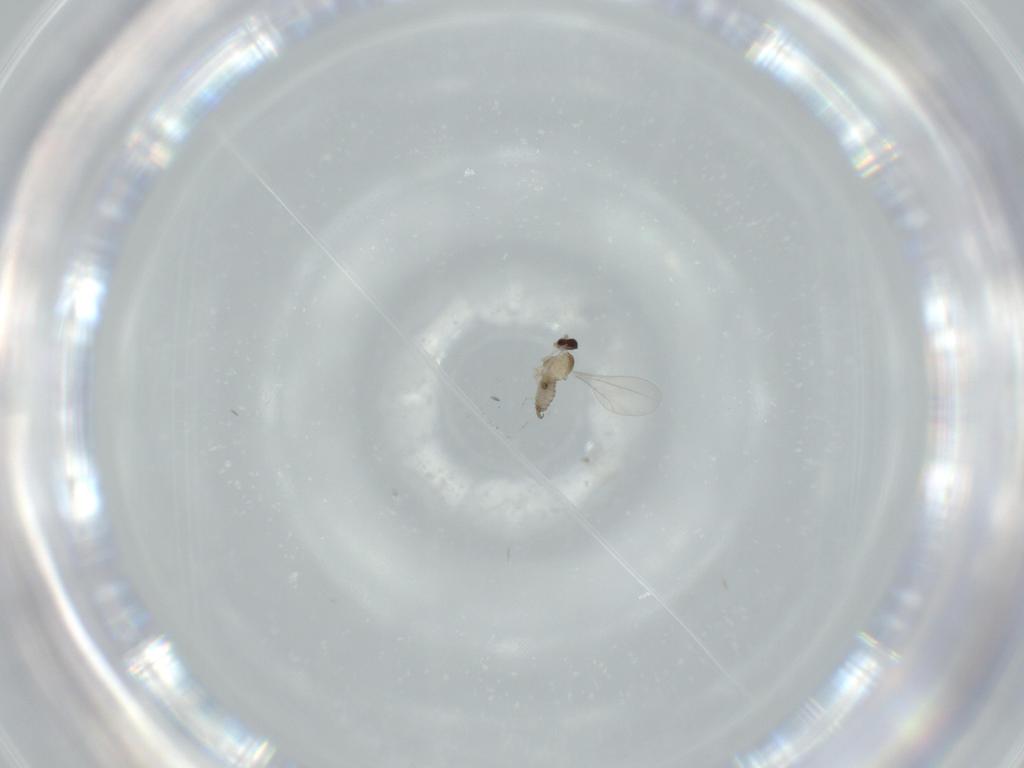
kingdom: Animalia
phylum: Arthropoda
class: Insecta
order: Diptera
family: Cecidomyiidae
